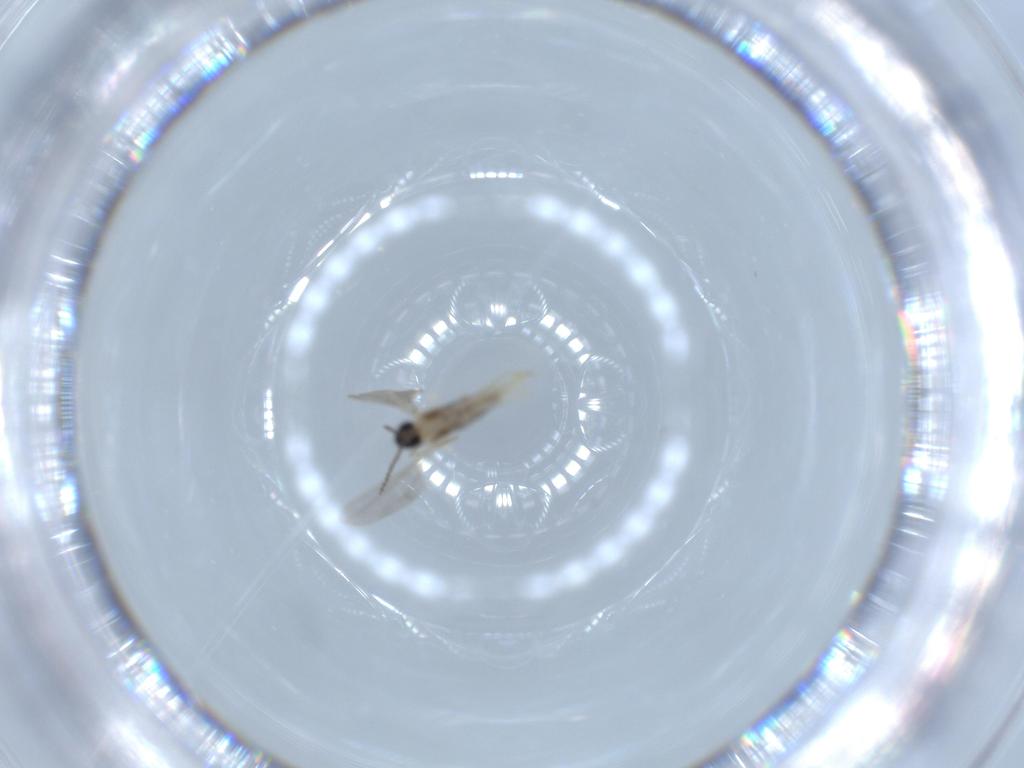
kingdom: Animalia
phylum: Arthropoda
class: Insecta
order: Diptera
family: Cecidomyiidae
